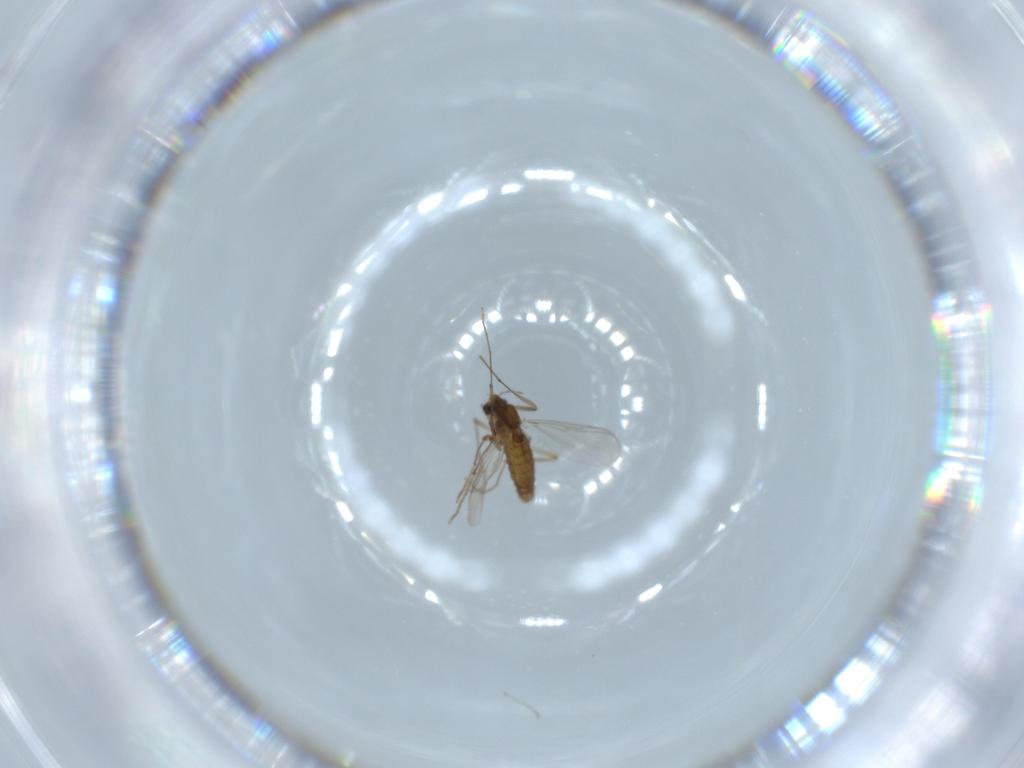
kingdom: Animalia
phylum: Arthropoda
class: Insecta
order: Diptera
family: Chironomidae
